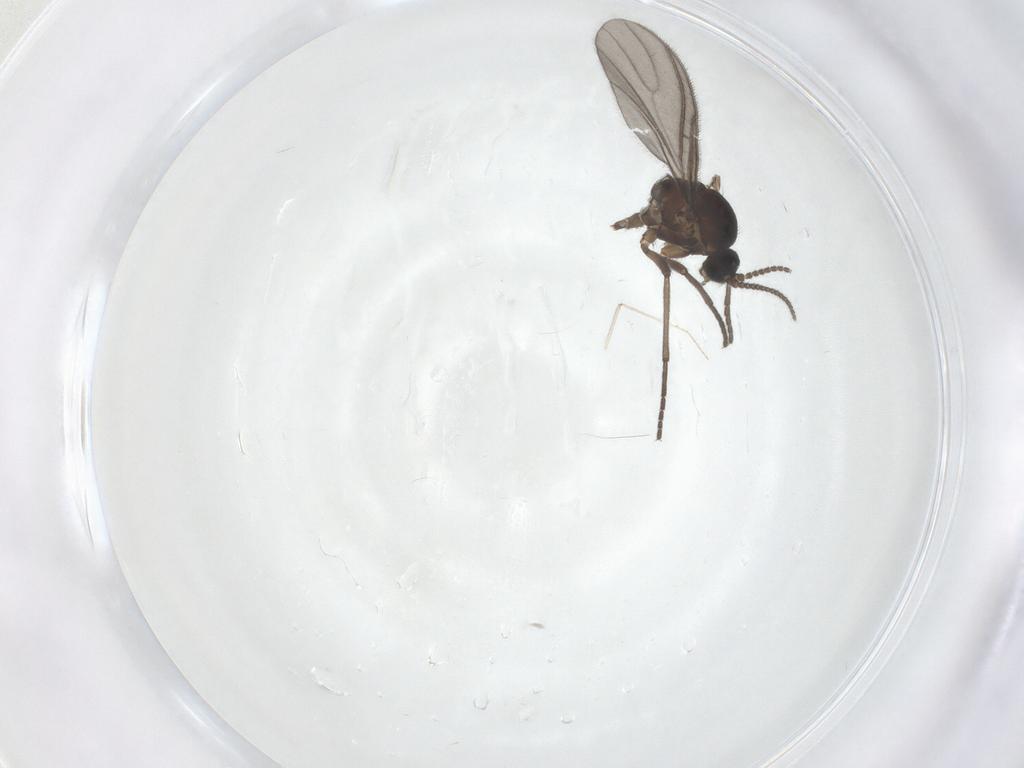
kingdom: Animalia
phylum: Arthropoda
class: Insecta
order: Diptera
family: Sciaridae
